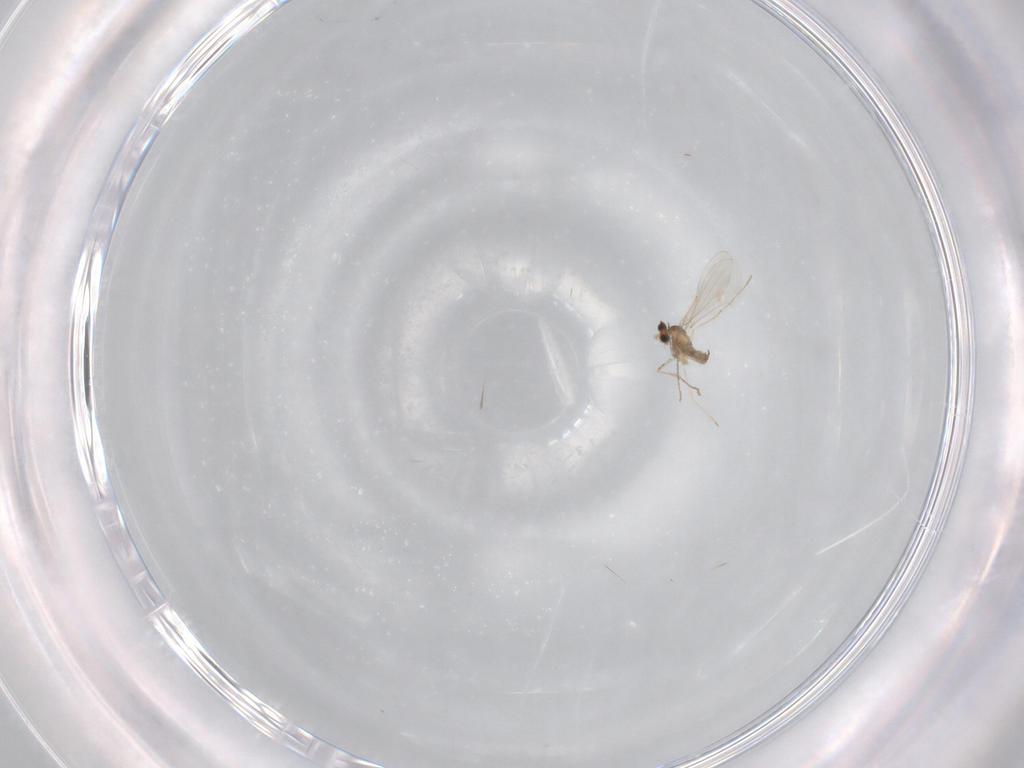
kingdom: Animalia
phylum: Arthropoda
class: Insecta
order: Diptera
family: Cecidomyiidae
